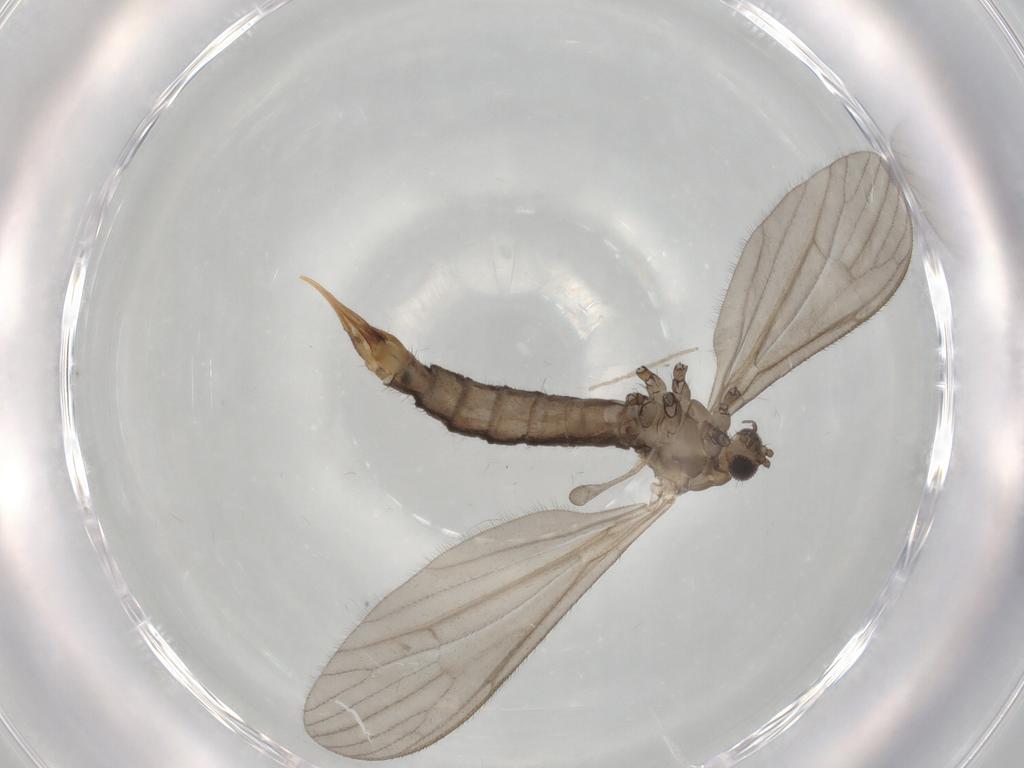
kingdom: Animalia
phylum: Arthropoda
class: Insecta
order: Diptera
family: Limoniidae
